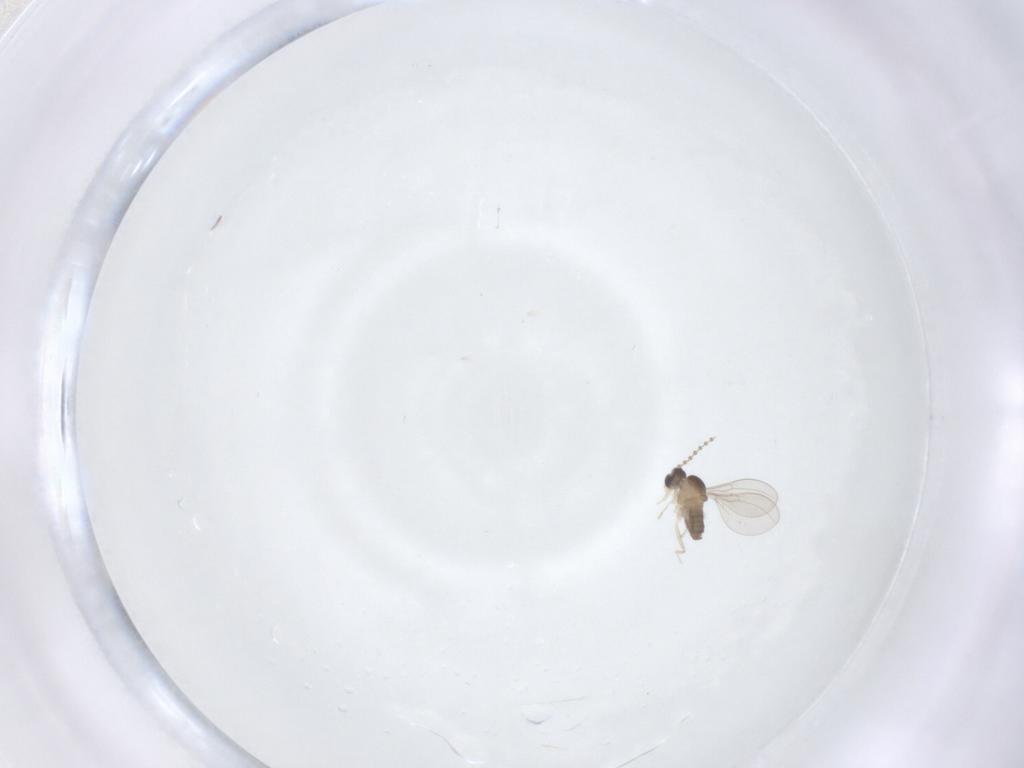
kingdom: Animalia
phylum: Arthropoda
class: Insecta
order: Diptera
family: Cecidomyiidae
